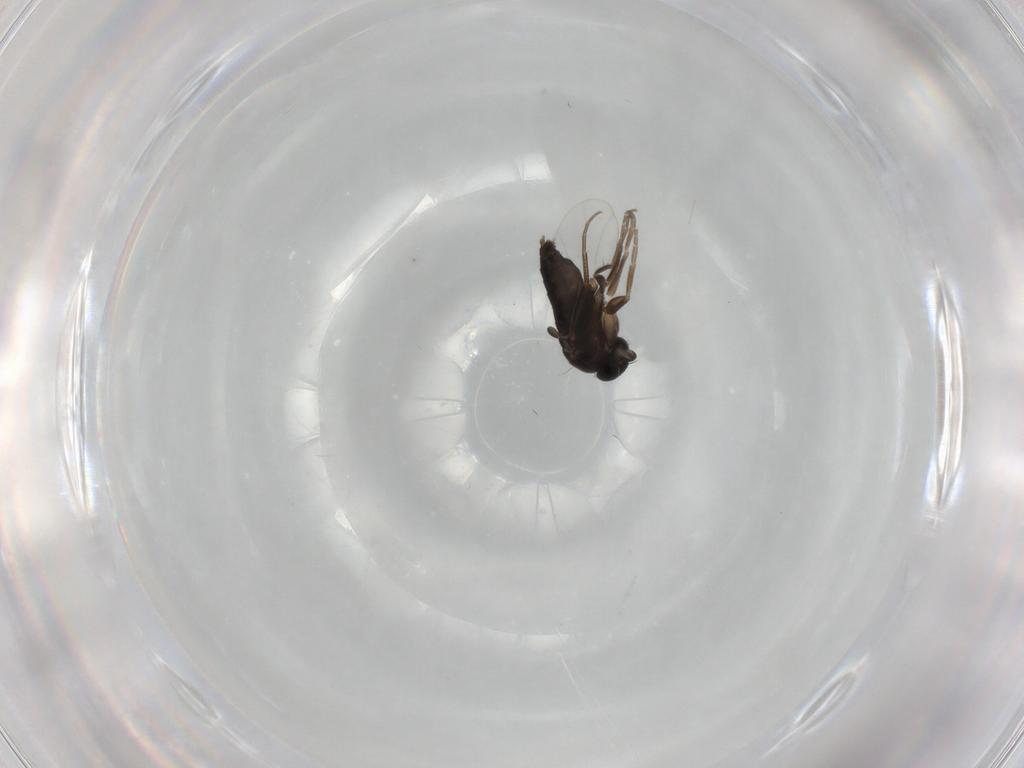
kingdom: Animalia
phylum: Arthropoda
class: Insecta
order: Diptera
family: Phoridae
